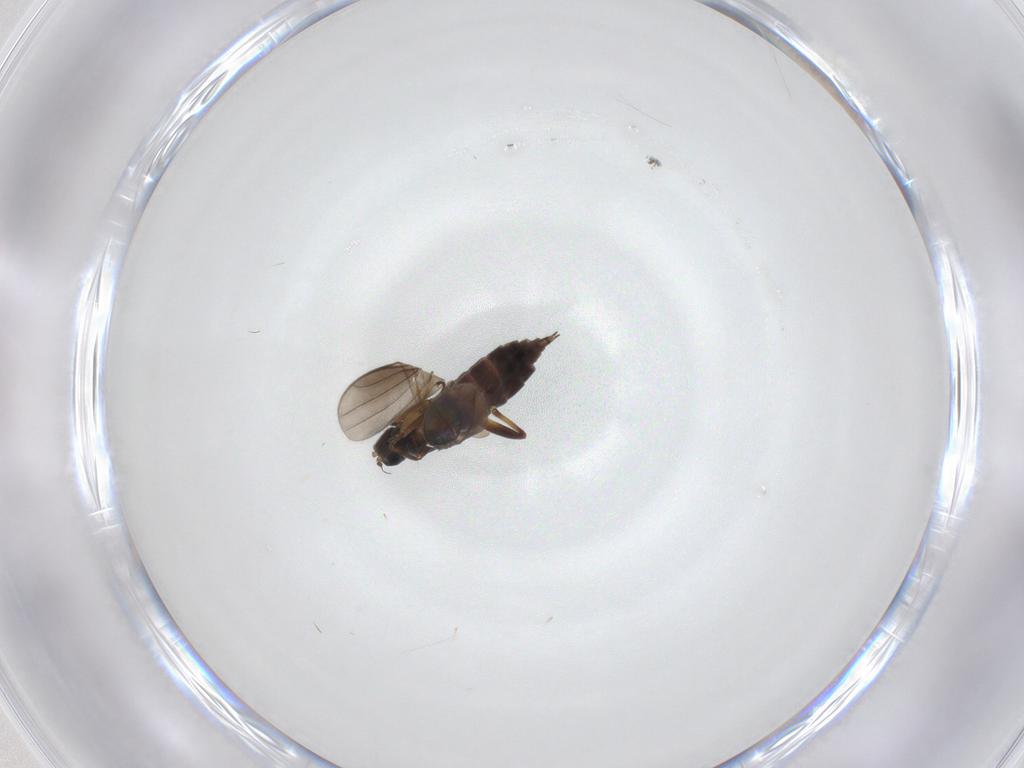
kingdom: Animalia
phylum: Arthropoda
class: Insecta
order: Diptera
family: Hybotidae
